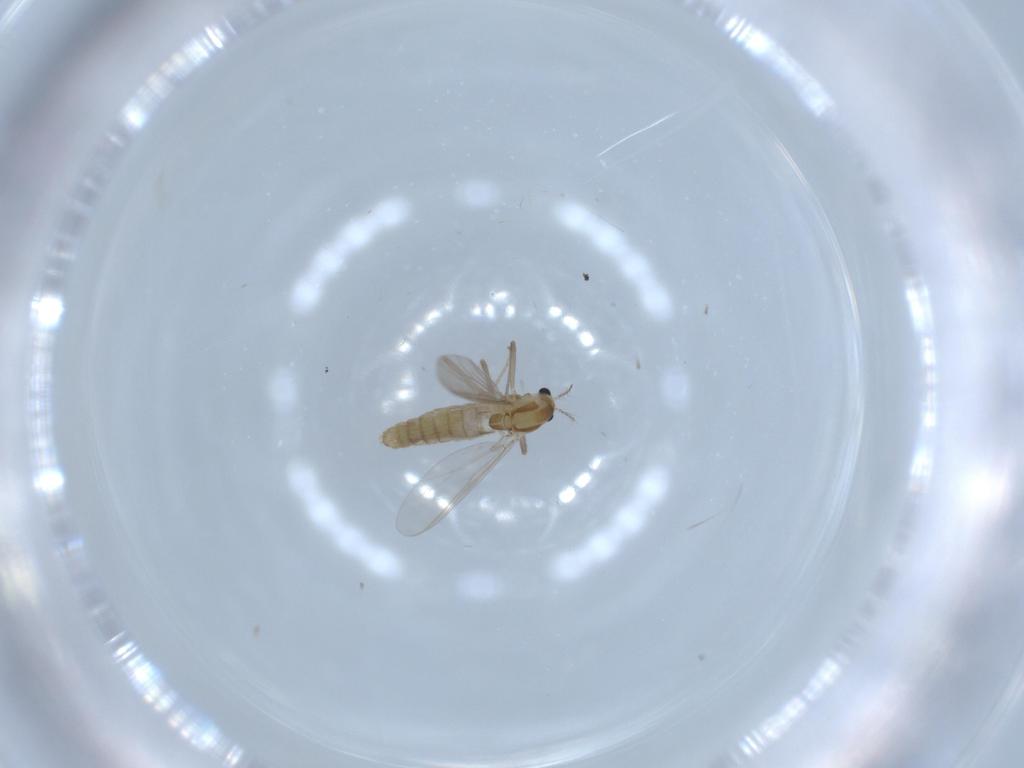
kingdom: Animalia
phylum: Arthropoda
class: Insecta
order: Diptera
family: Chironomidae
